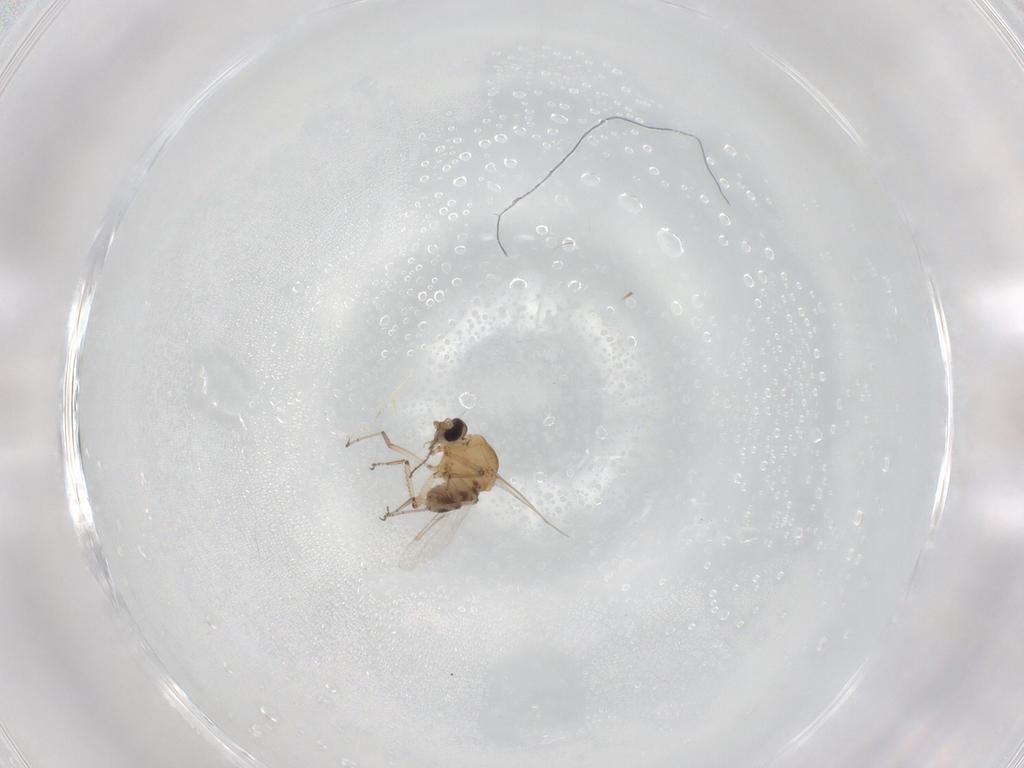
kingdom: Animalia
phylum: Arthropoda
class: Insecta
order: Diptera
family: Ceratopogonidae
